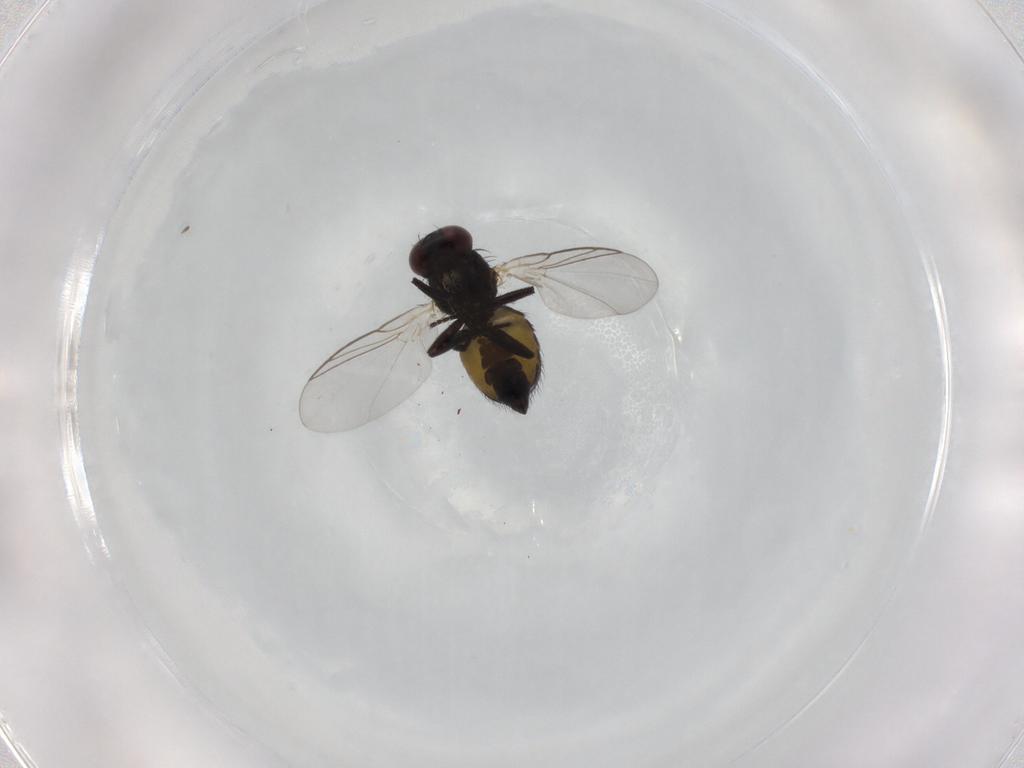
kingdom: Animalia
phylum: Arthropoda
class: Insecta
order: Diptera
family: Agromyzidae
